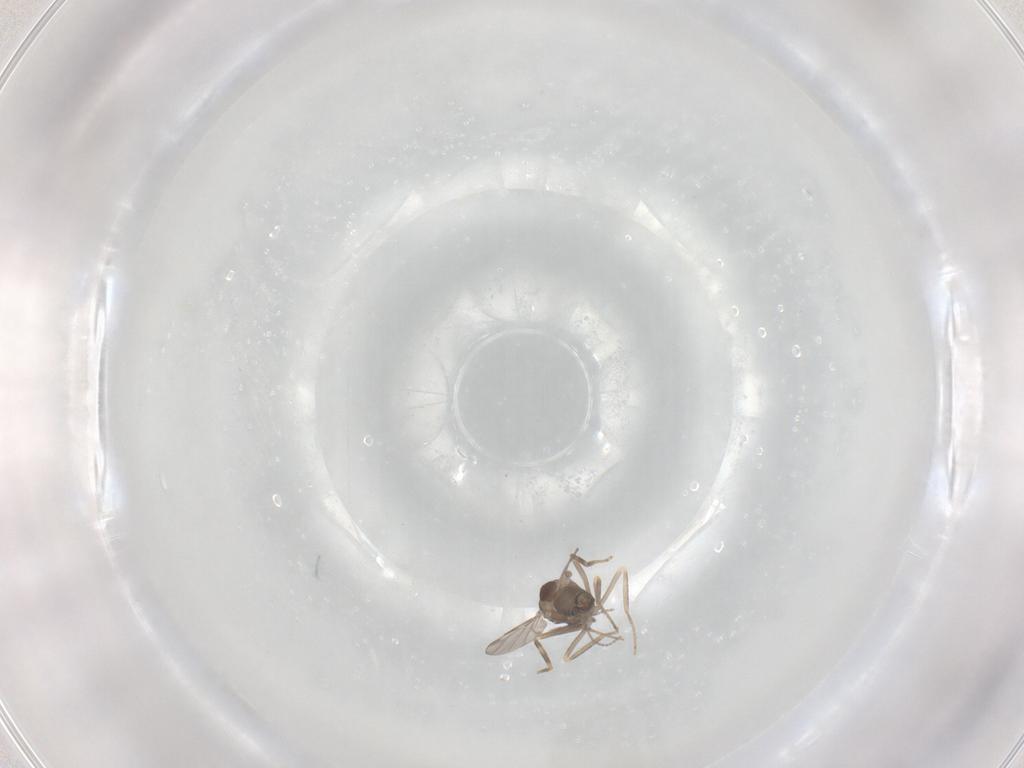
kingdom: Animalia
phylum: Arthropoda
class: Insecta
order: Diptera
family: Ceratopogonidae
